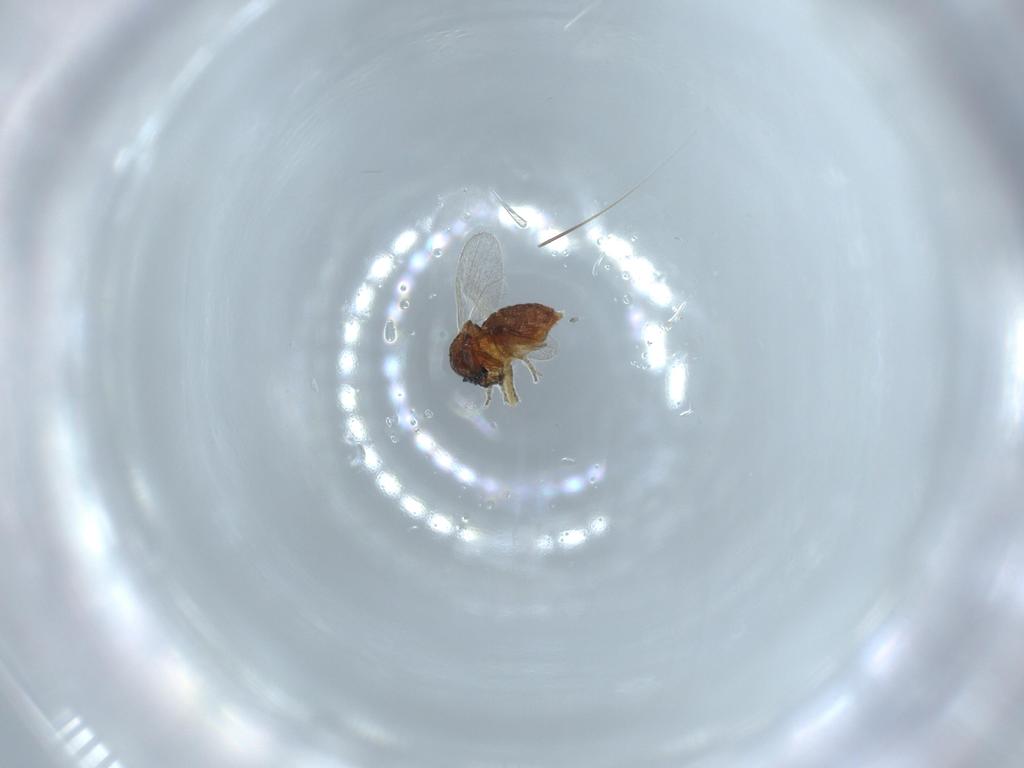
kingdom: Animalia
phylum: Arthropoda
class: Insecta
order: Diptera
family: Ceratopogonidae
